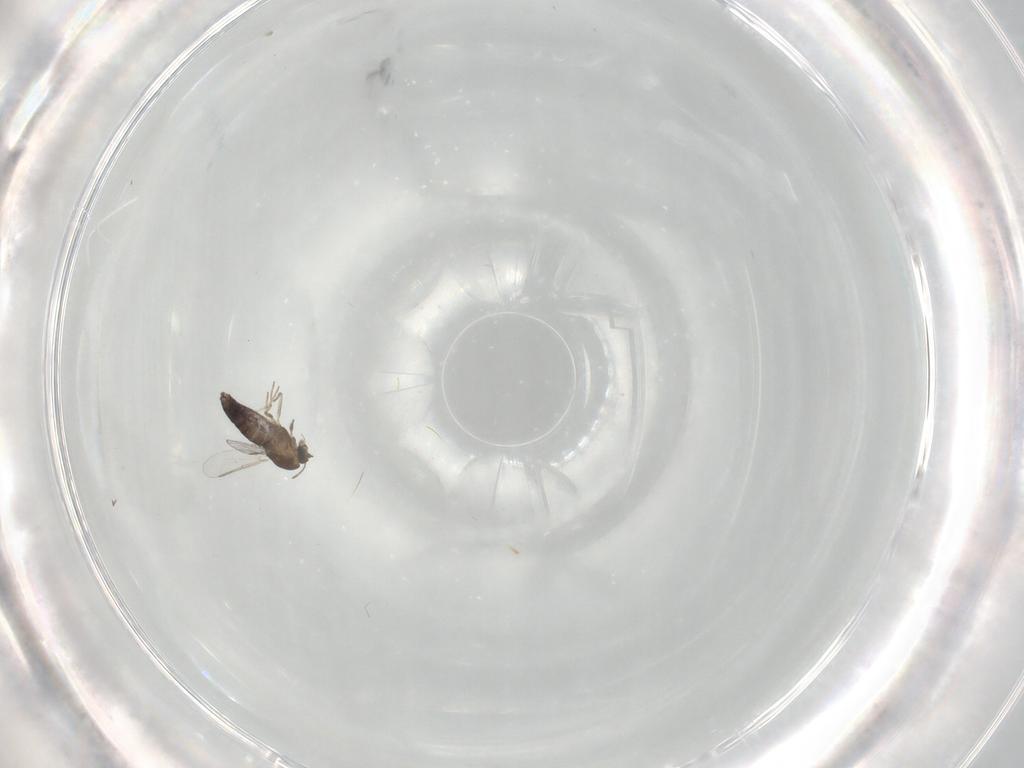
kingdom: Animalia
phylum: Arthropoda
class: Insecta
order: Diptera
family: Chironomidae
